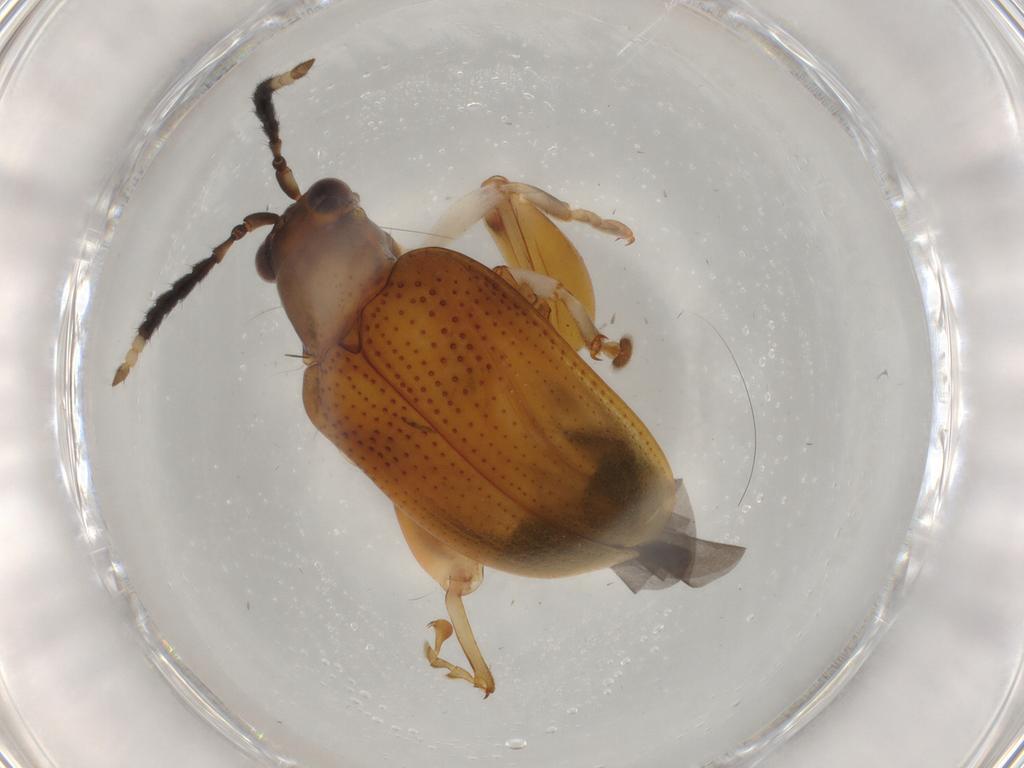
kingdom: Animalia
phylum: Arthropoda
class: Insecta
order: Coleoptera
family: Chrysomelidae
